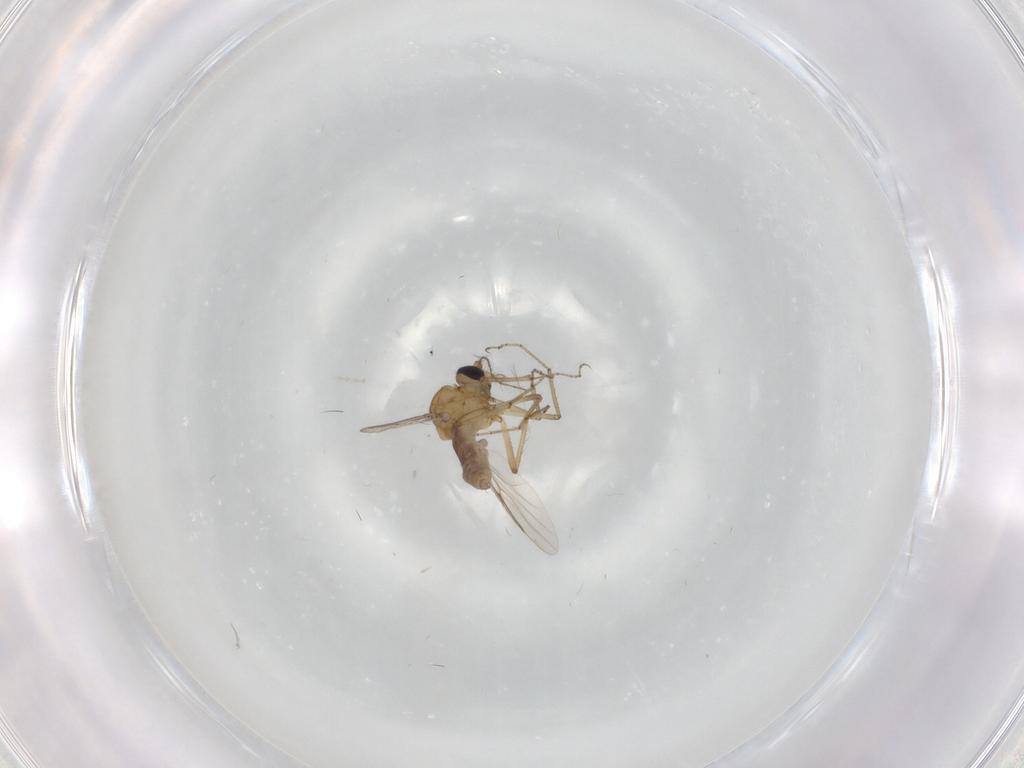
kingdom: Animalia
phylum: Arthropoda
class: Insecta
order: Diptera
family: Ceratopogonidae
